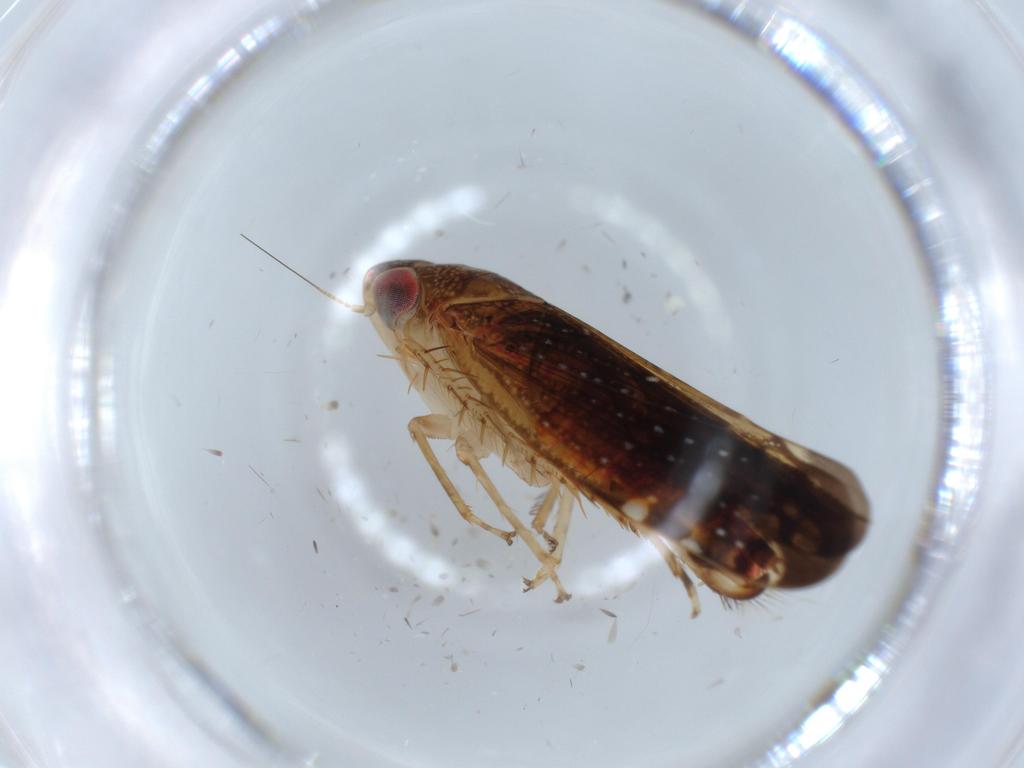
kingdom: Animalia
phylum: Arthropoda
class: Insecta
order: Hemiptera
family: Cicadellidae
